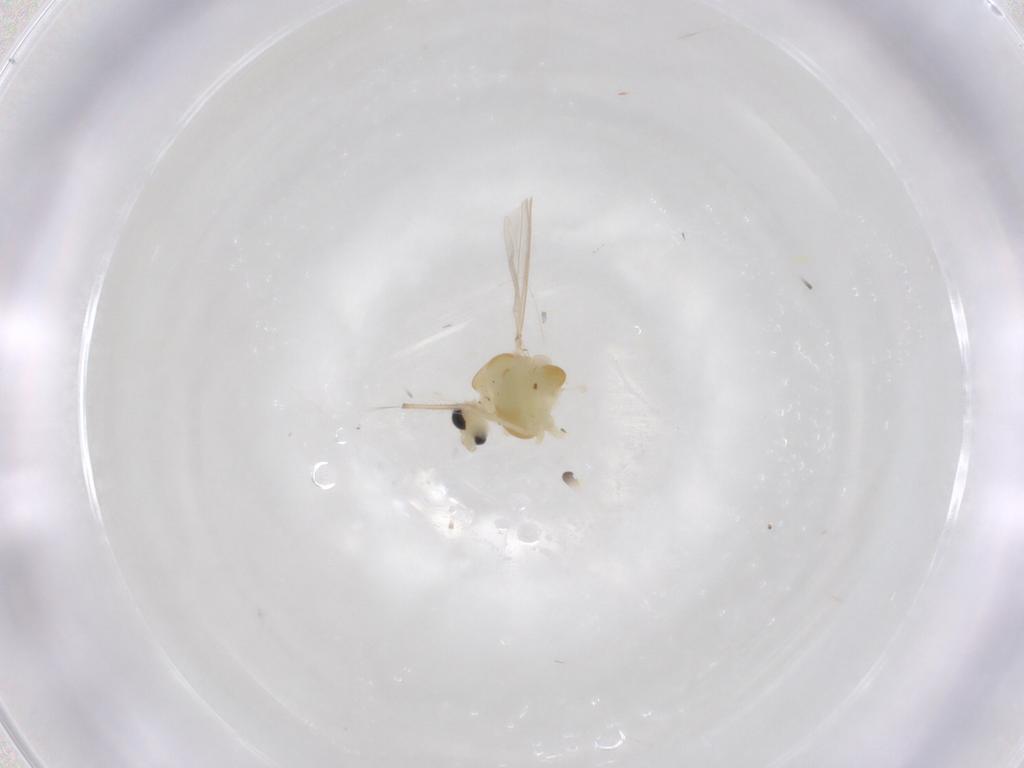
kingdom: Animalia
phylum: Arthropoda
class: Insecta
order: Diptera
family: Chironomidae
